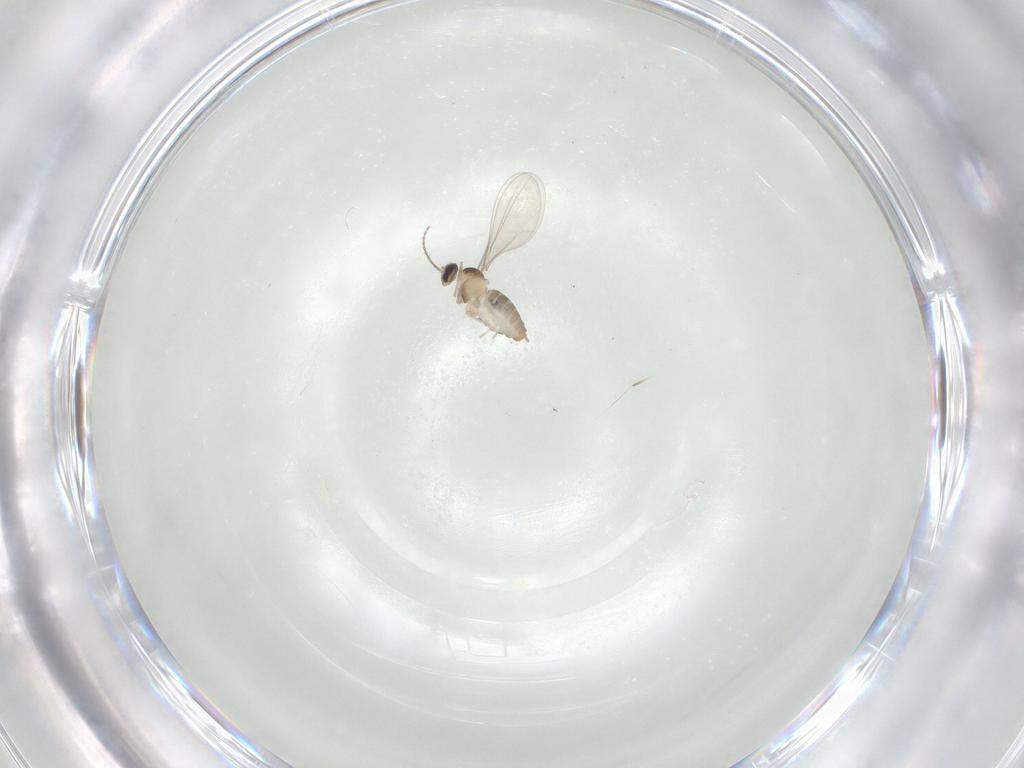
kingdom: Animalia
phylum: Arthropoda
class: Insecta
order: Diptera
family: Cecidomyiidae
